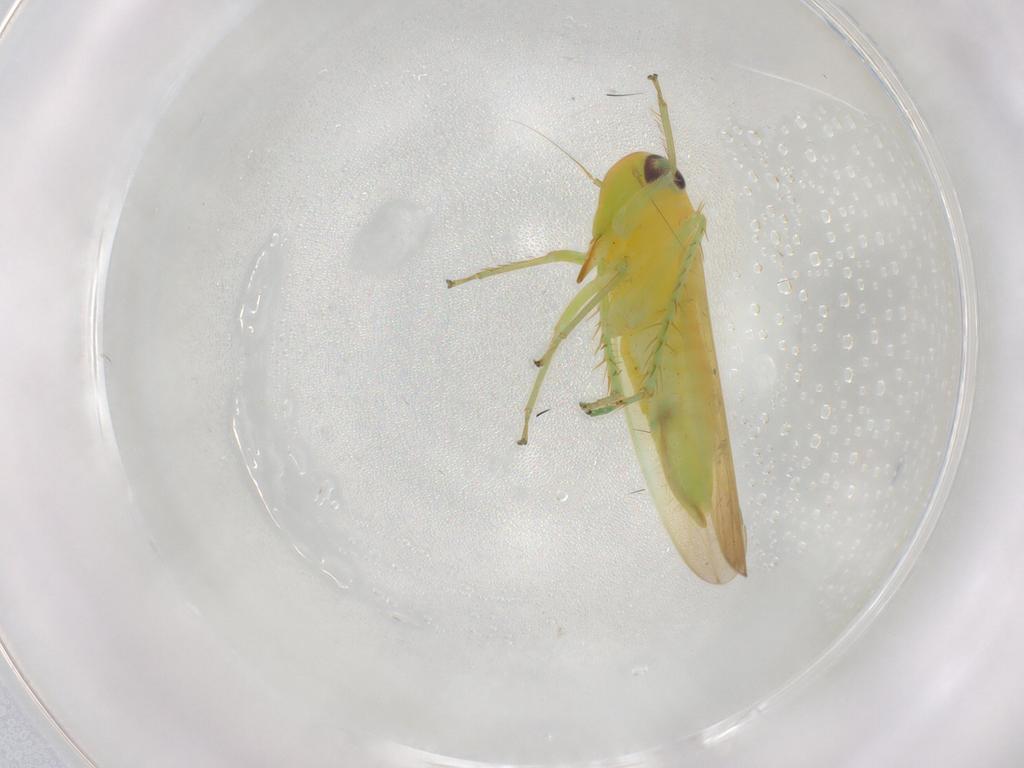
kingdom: Animalia
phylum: Arthropoda
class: Insecta
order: Hemiptera
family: Cicadellidae
